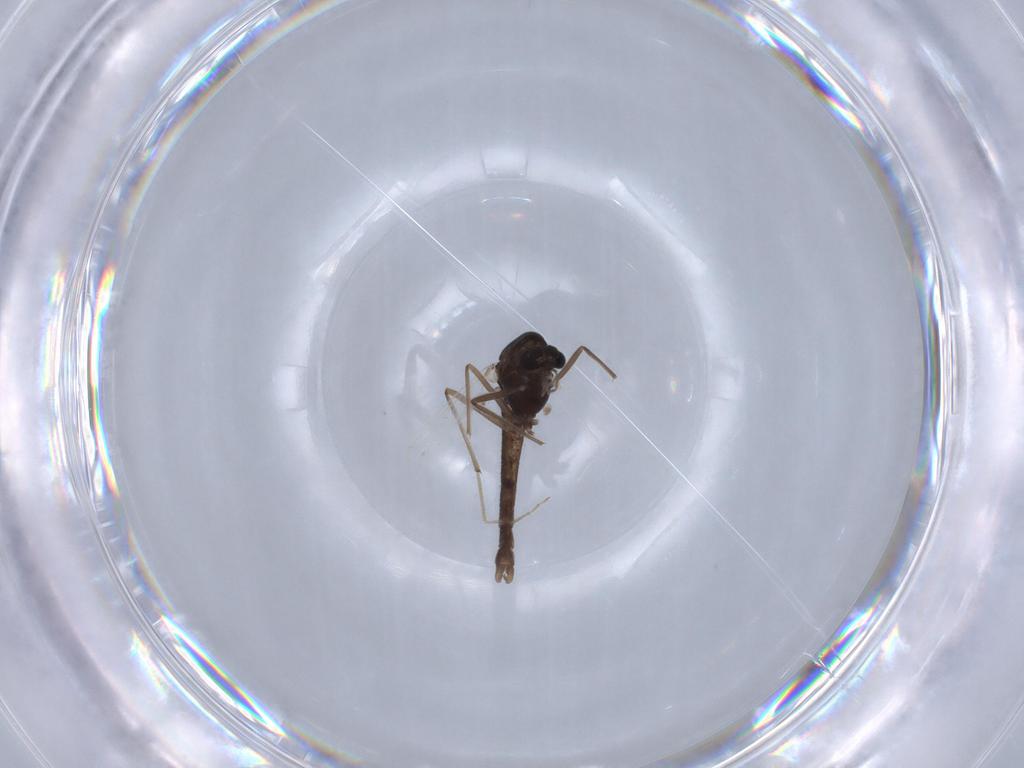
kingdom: Animalia
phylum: Arthropoda
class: Insecta
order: Diptera
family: Chironomidae
